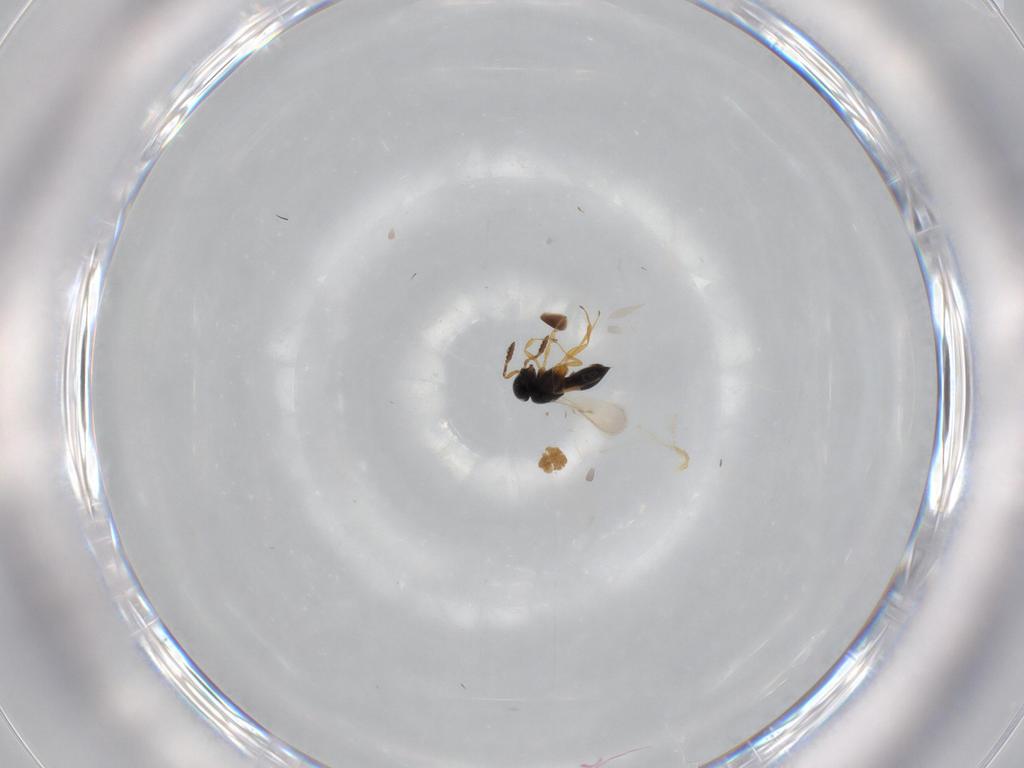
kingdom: Animalia
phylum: Arthropoda
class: Insecta
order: Hymenoptera
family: Scelionidae
